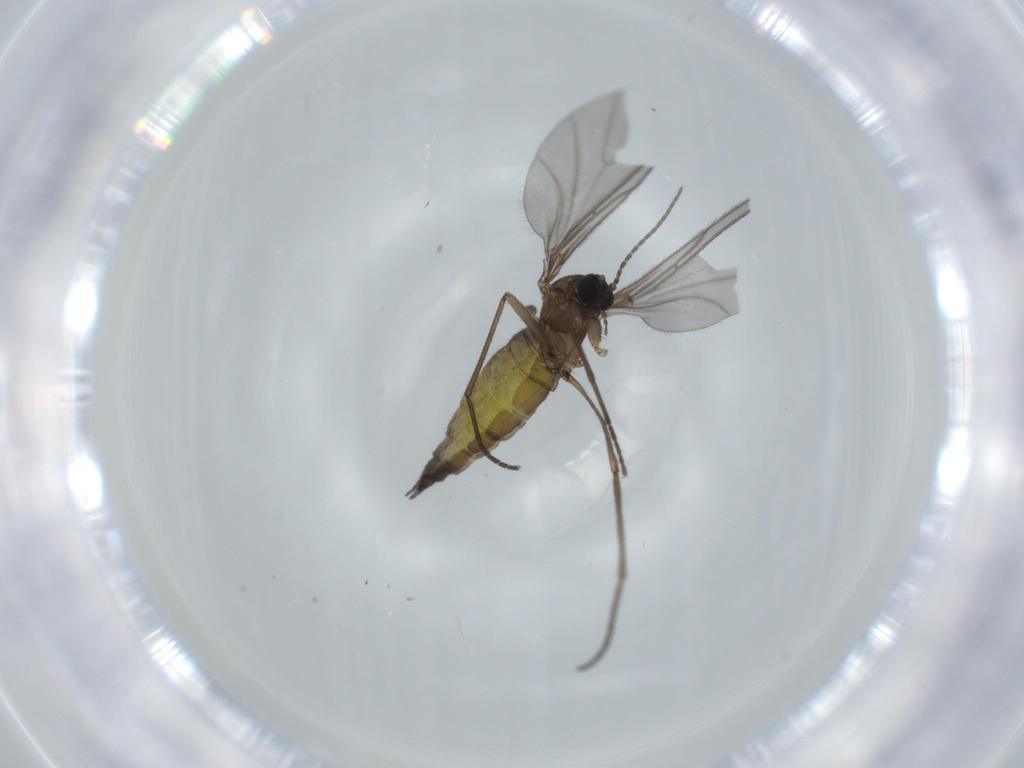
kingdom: Animalia
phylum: Arthropoda
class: Insecta
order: Diptera
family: Sciaridae
